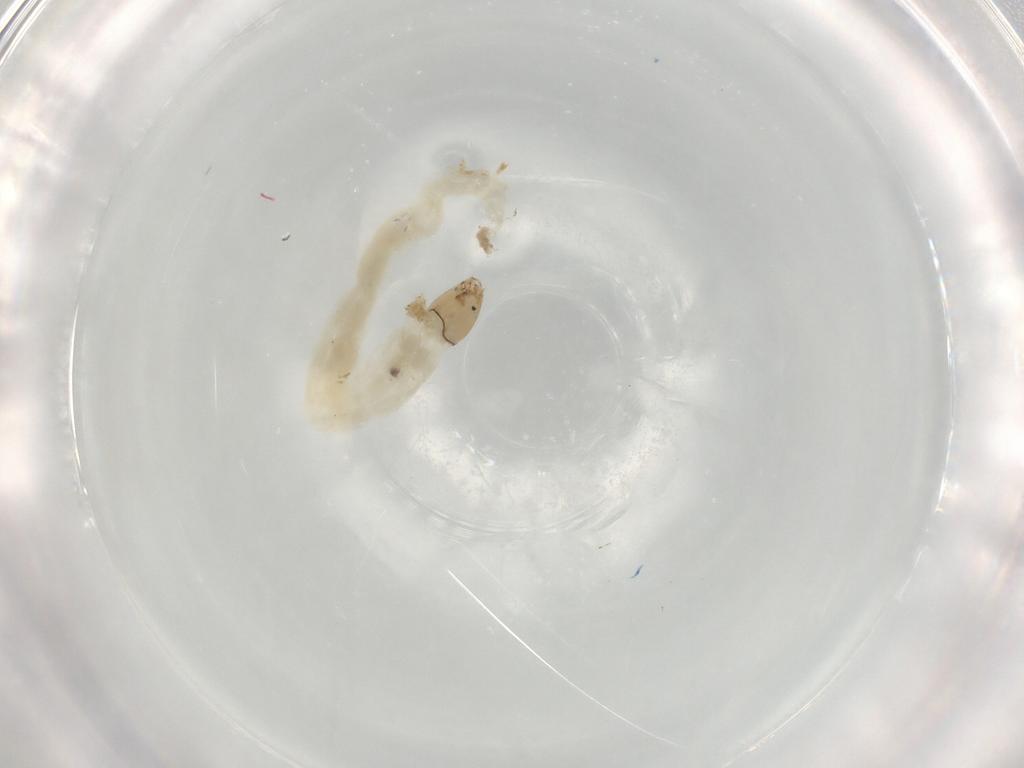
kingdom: Animalia
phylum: Arthropoda
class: Insecta
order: Diptera
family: Chironomidae
